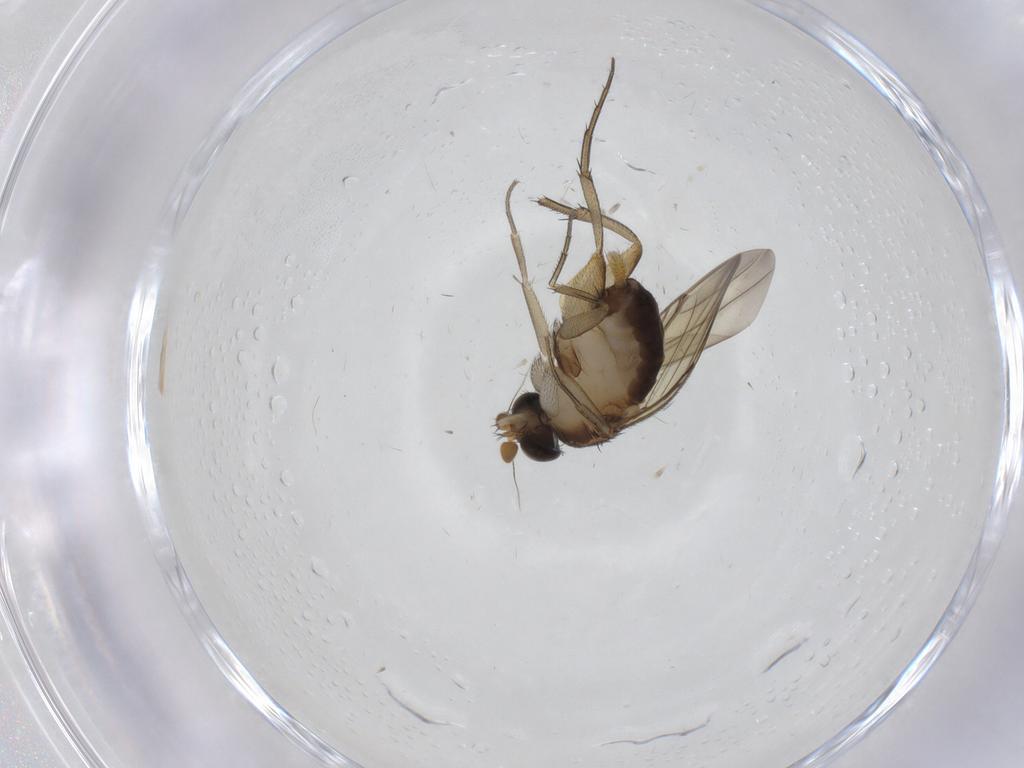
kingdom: Animalia
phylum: Arthropoda
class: Insecta
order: Diptera
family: Phoridae
